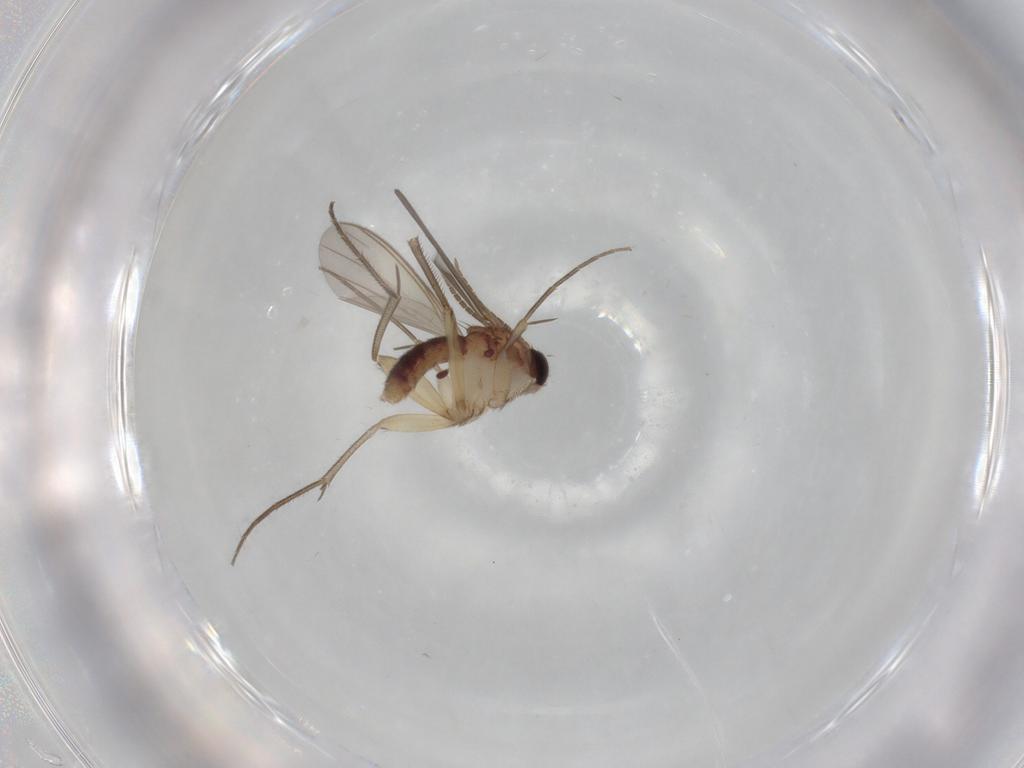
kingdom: Animalia
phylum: Arthropoda
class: Insecta
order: Diptera
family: Mycetophilidae
